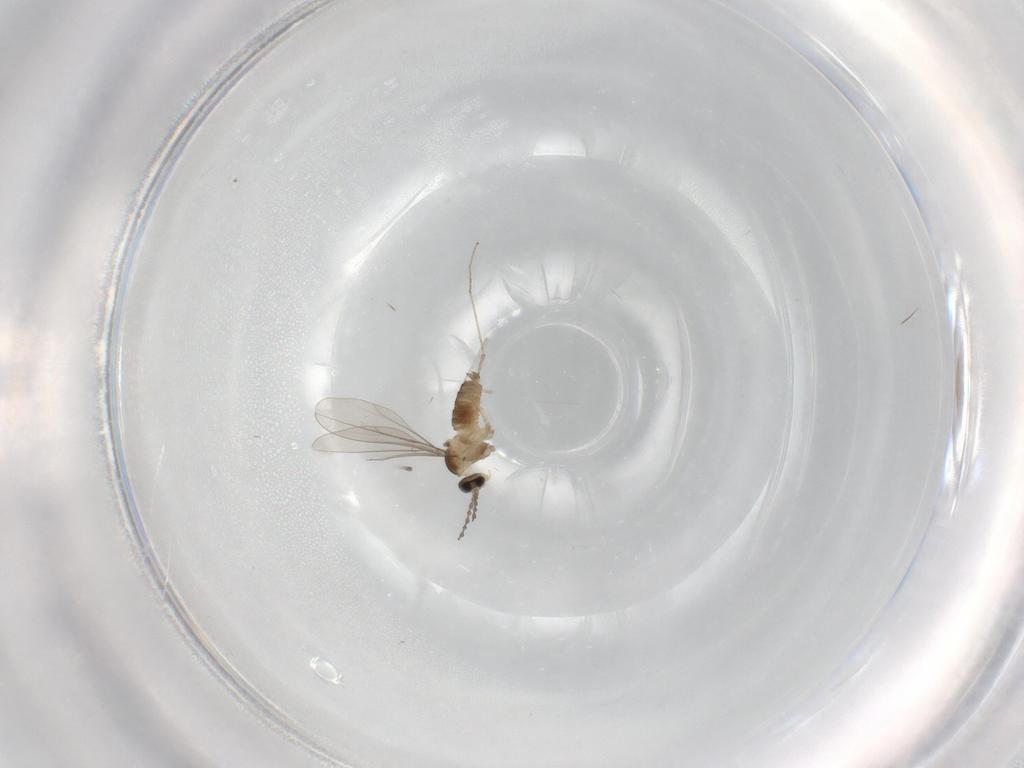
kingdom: Animalia
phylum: Arthropoda
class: Insecta
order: Diptera
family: Cecidomyiidae
